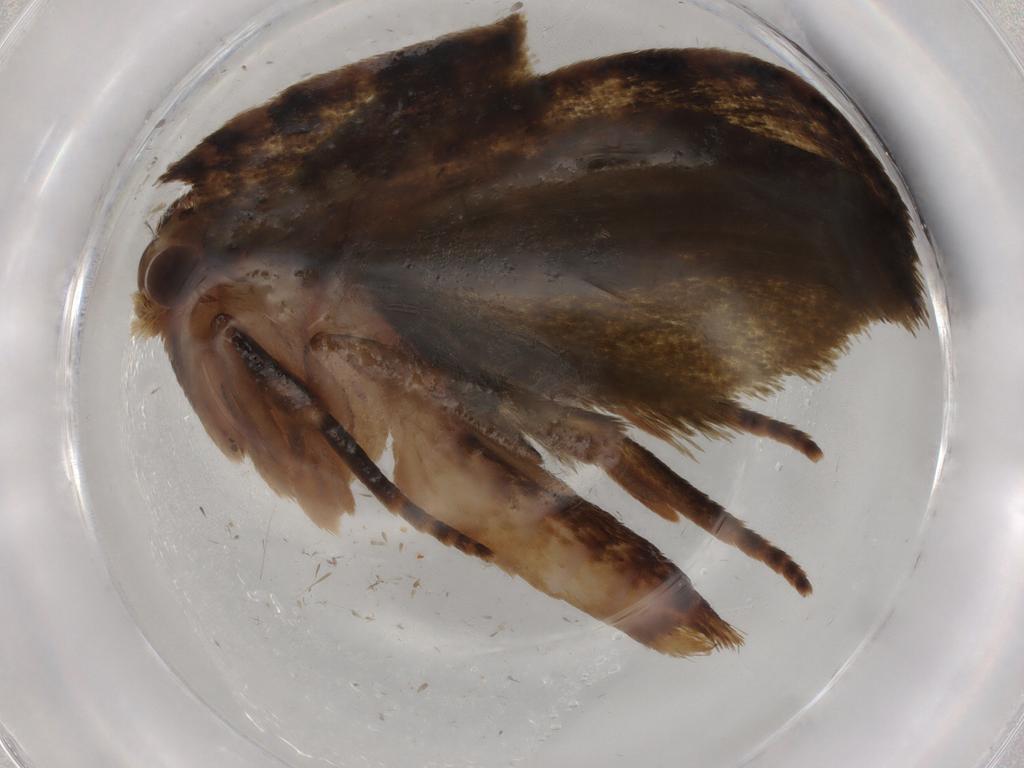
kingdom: Animalia
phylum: Arthropoda
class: Insecta
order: Lepidoptera
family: Geometridae
